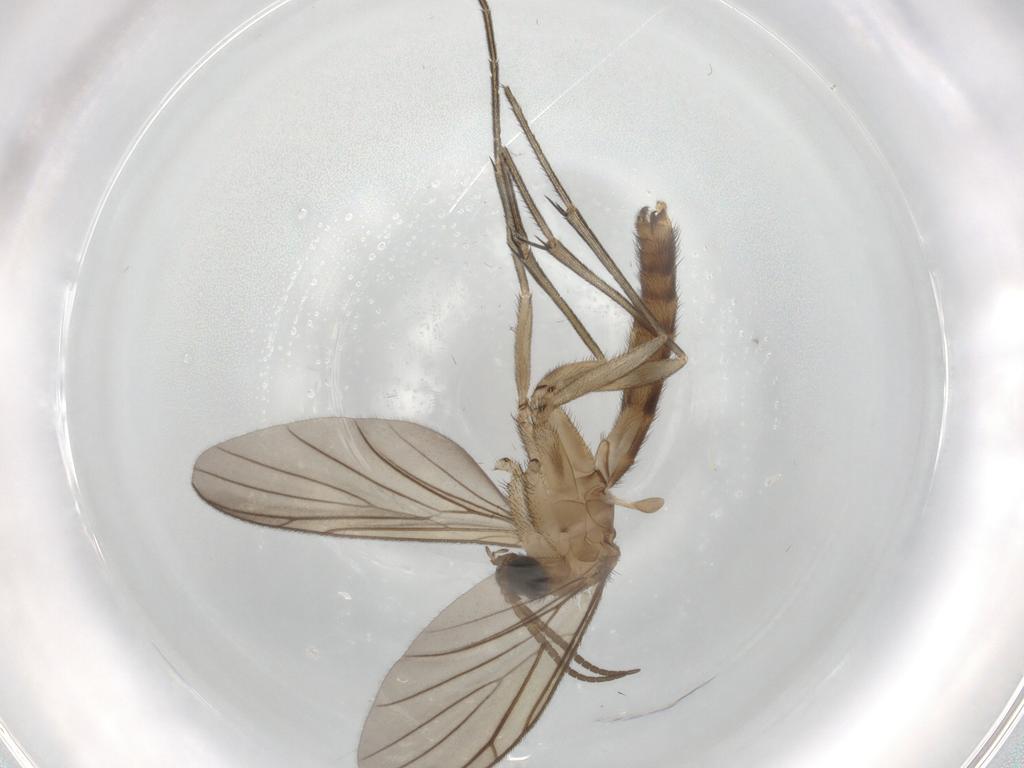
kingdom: Animalia
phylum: Arthropoda
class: Insecta
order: Diptera
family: Keroplatidae
